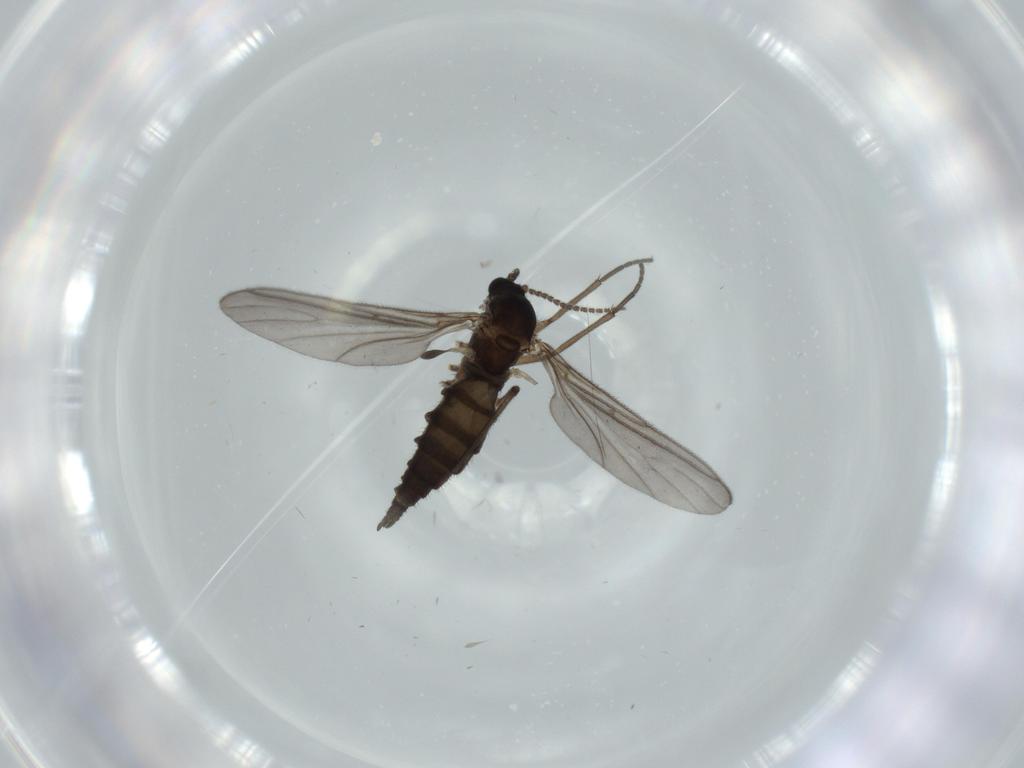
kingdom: Animalia
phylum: Arthropoda
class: Insecta
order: Diptera
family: Sciaridae
